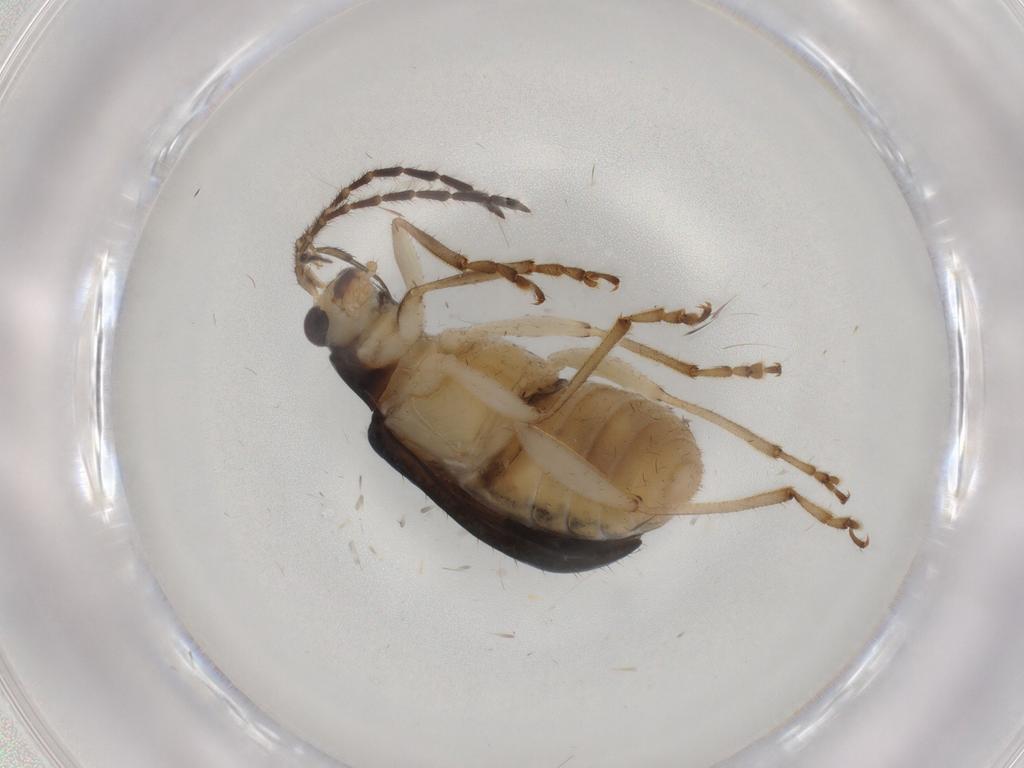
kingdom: Animalia
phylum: Arthropoda
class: Insecta
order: Coleoptera
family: Chrysomelidae
